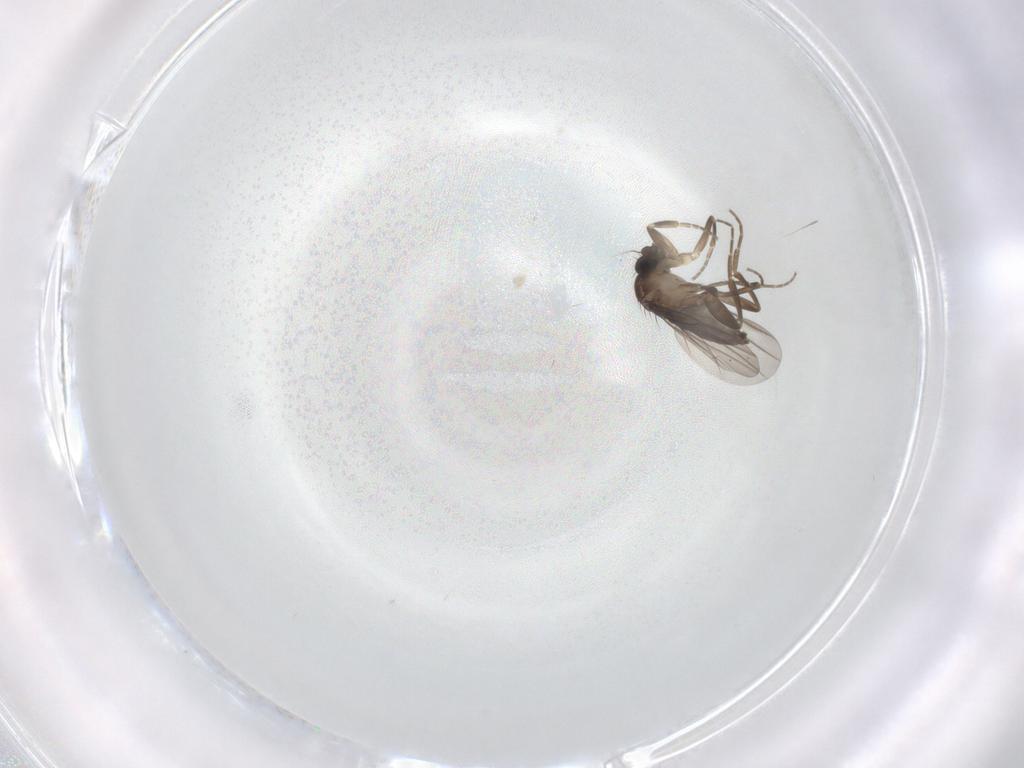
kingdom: Animalia
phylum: Arthropoda
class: Insecta
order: Diptera
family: Phoridae
